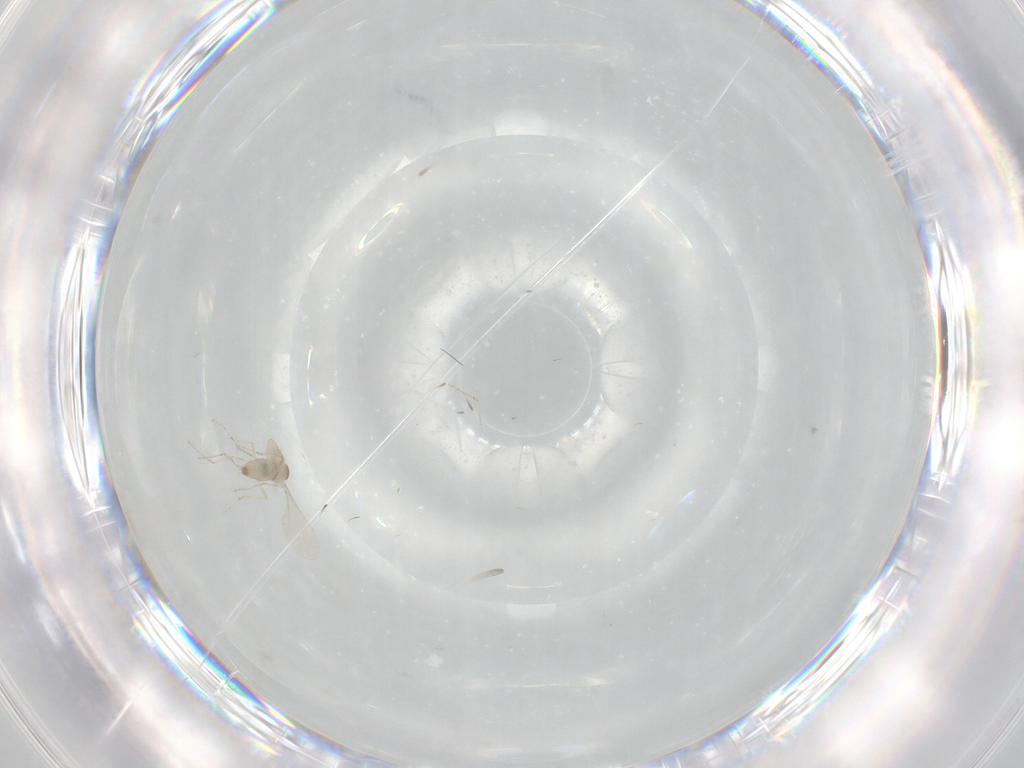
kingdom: Animalia
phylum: Arthropoda
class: Insecta
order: Diptera
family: Cecidomyiidae
